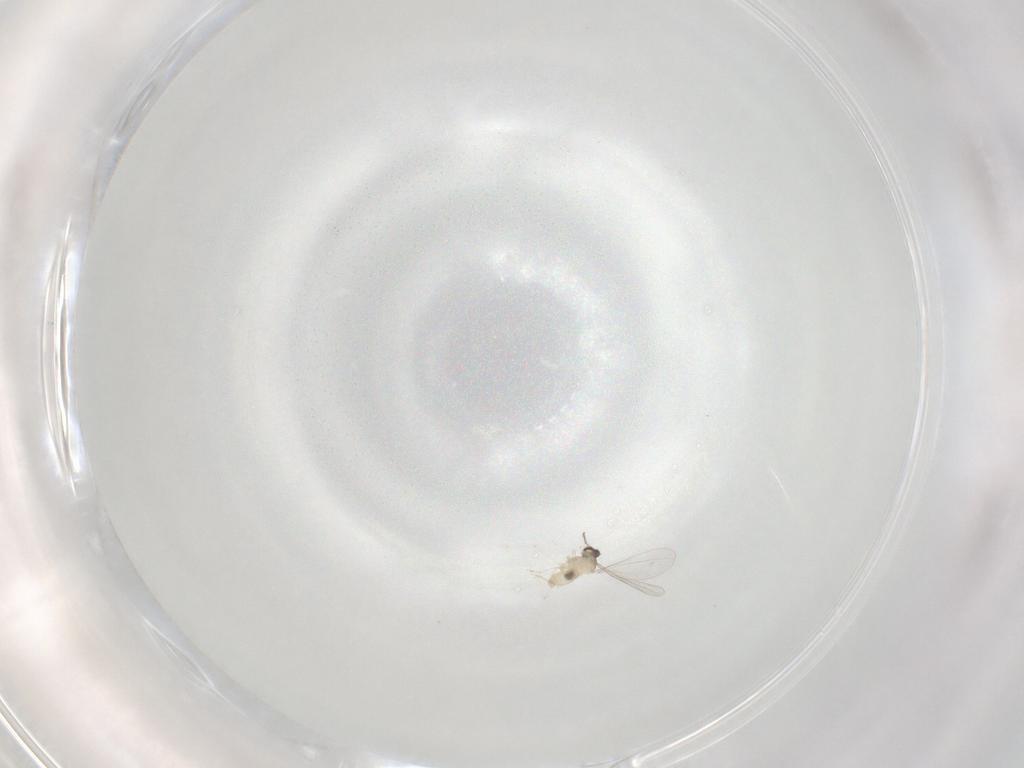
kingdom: Animalia
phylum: Arthropoda
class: Insecta
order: Diptera
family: Cecidomyiidae
